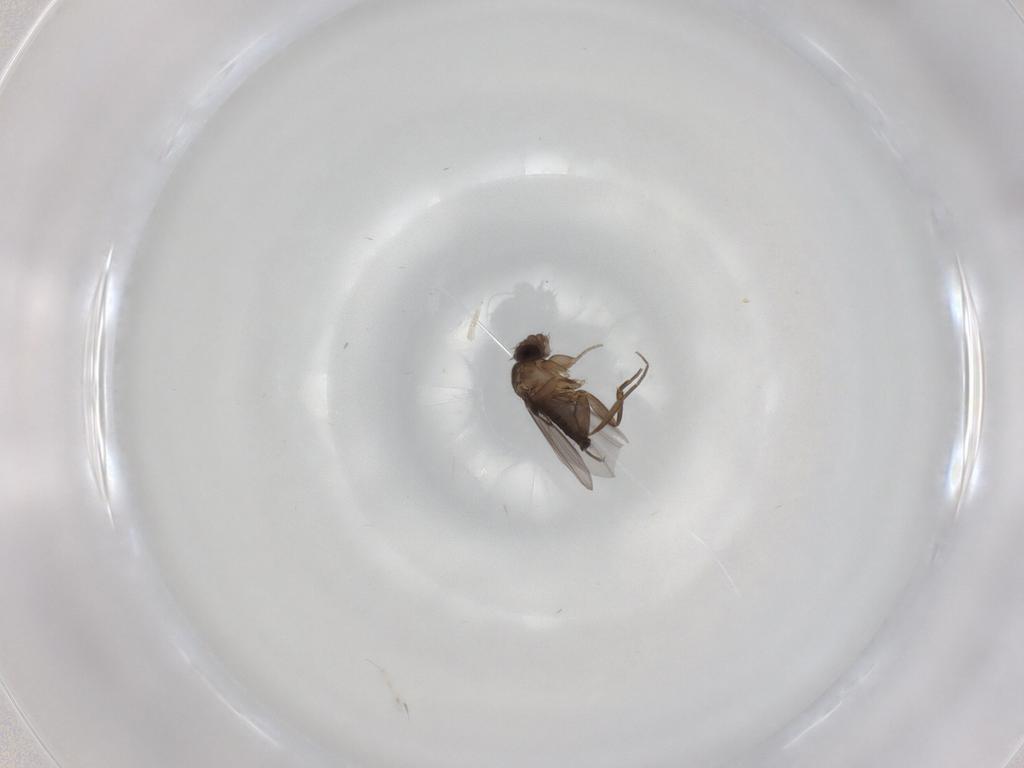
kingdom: Animalia
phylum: Arthropoda
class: Insecta
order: Diptera
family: Phoridae
